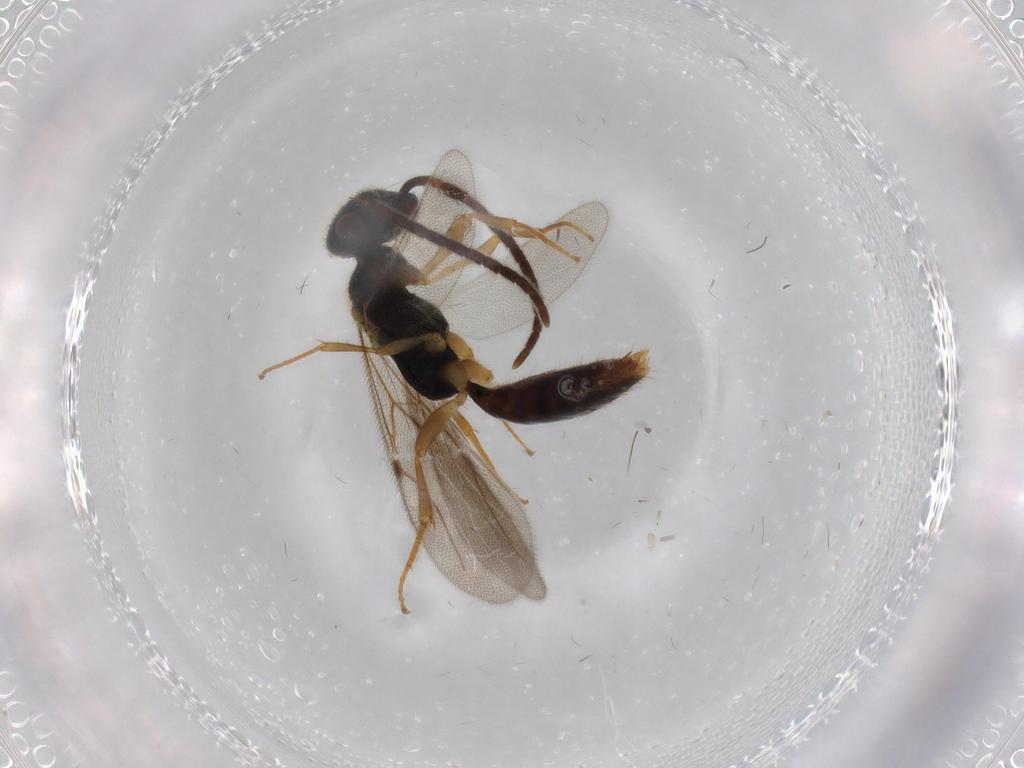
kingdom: Animalia
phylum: Arthropoda
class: Insecta
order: Hymenoptera
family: Bethylidae
